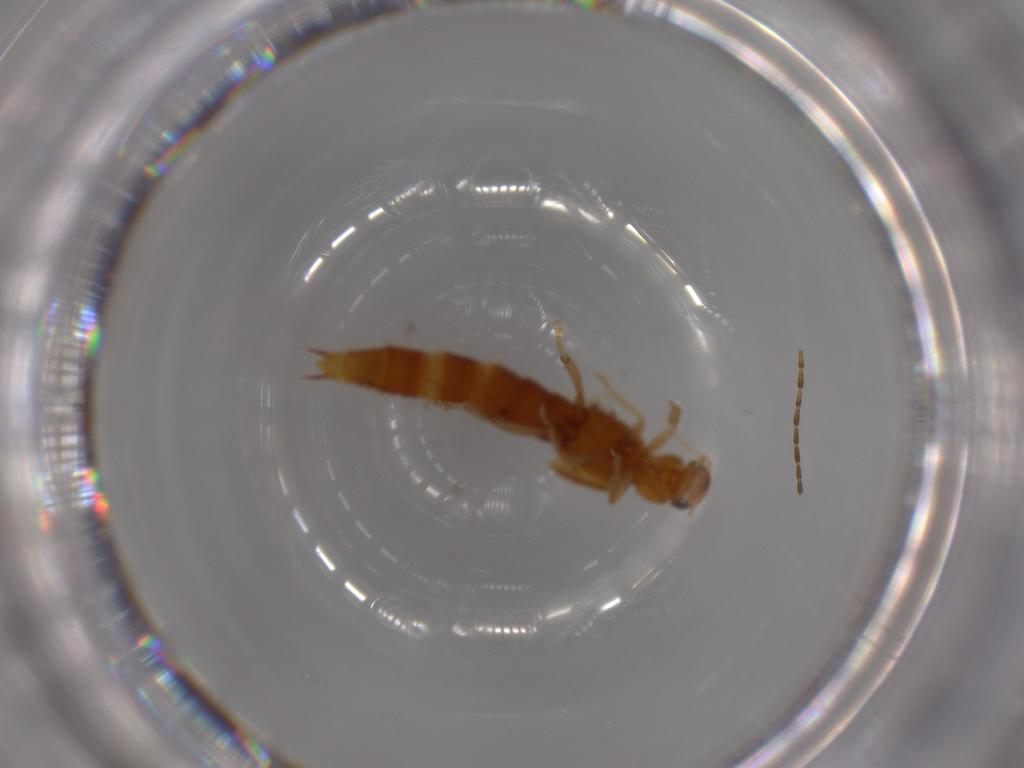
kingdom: Animalia
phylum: Arthropoda
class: Insecta
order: Coleoptera
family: Staphylinidae
